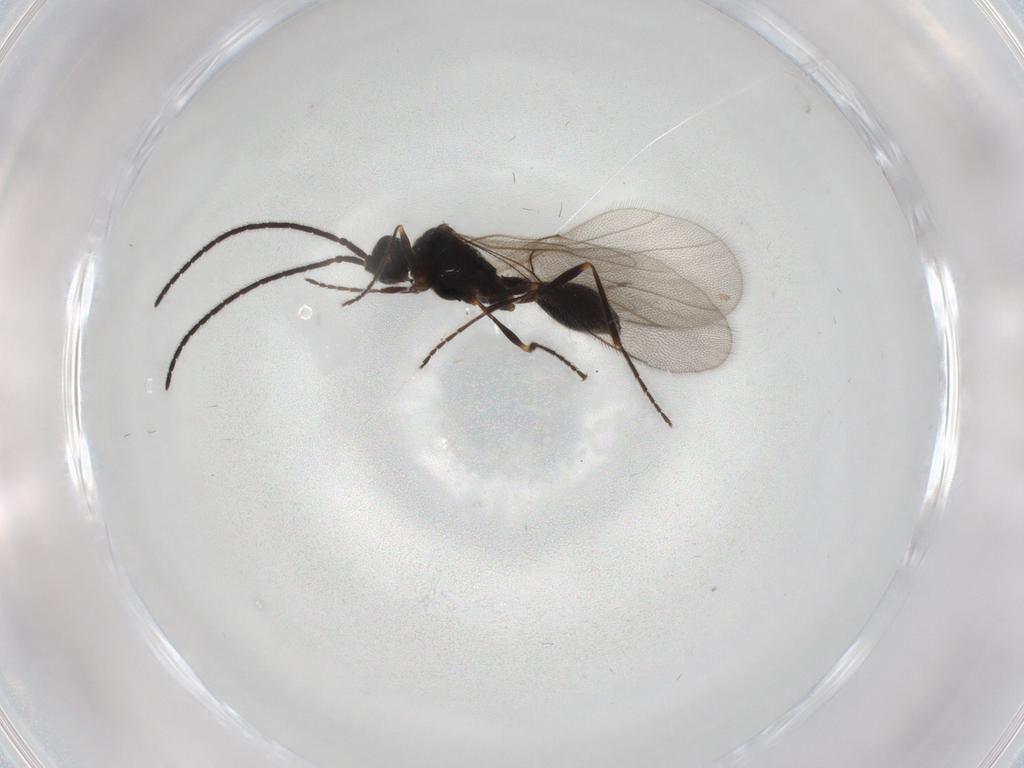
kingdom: Animalia
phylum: Arthropoda
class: Insecta
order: Hymenoptera
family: Diapriidae
